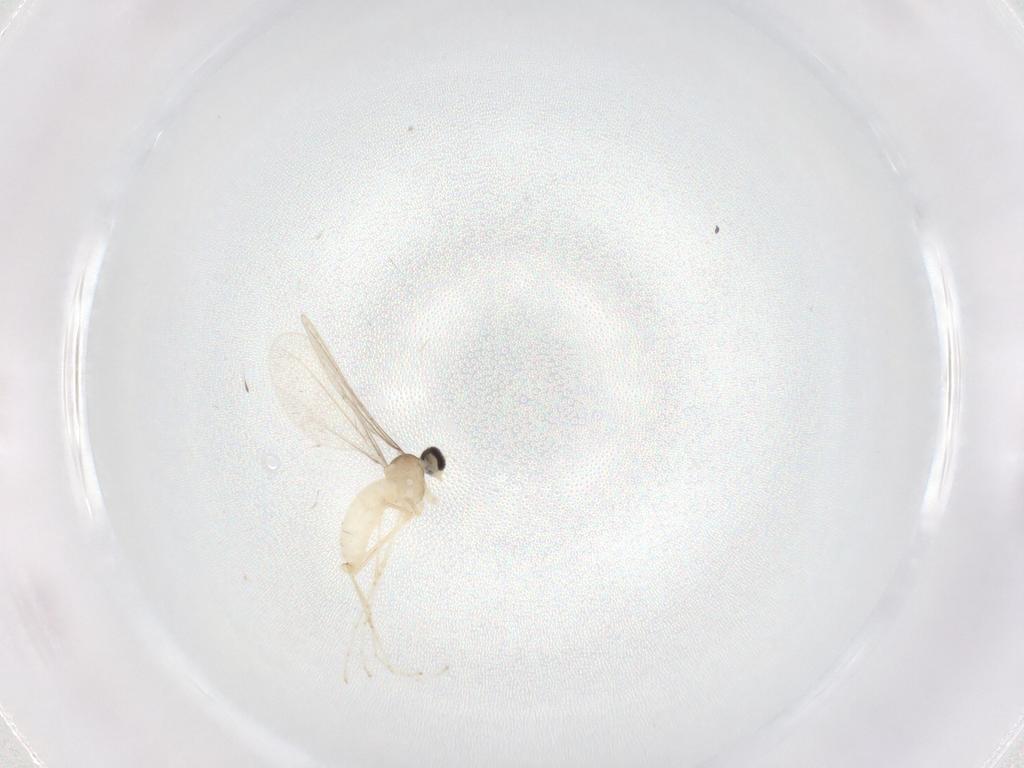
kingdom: Animalia
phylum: Arthropoda
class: Insecta
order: Diptera
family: Cecidomyiidae
